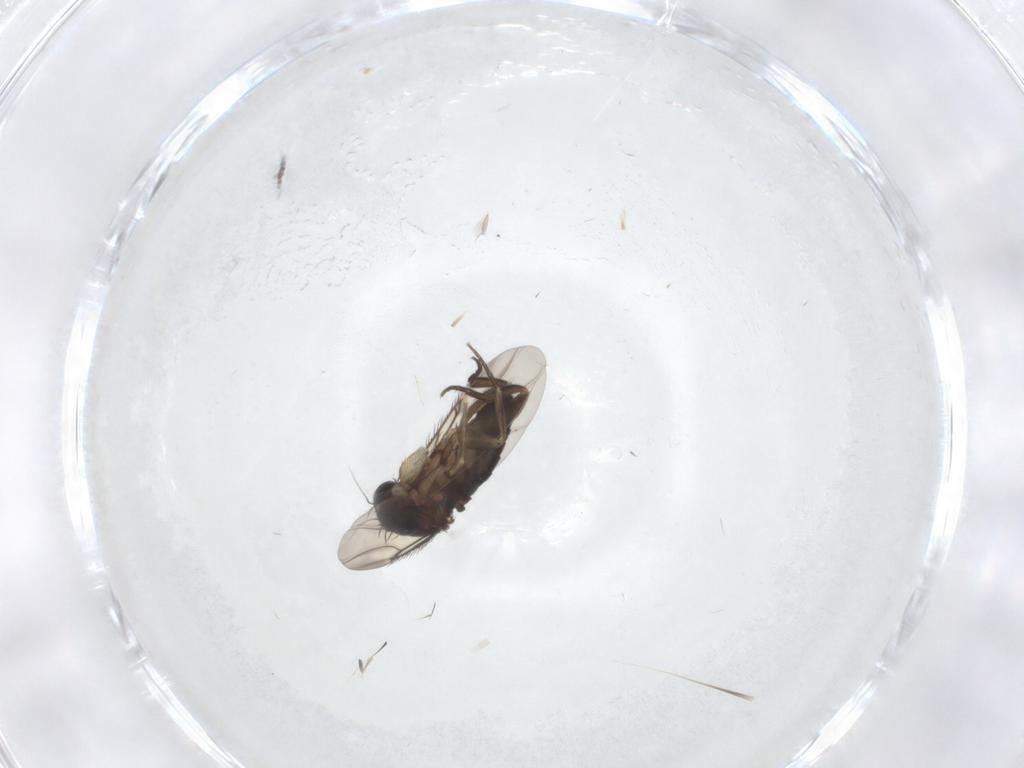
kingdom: Animalia
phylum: Arthropoda
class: Insecta
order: Diptera
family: Phoridae
